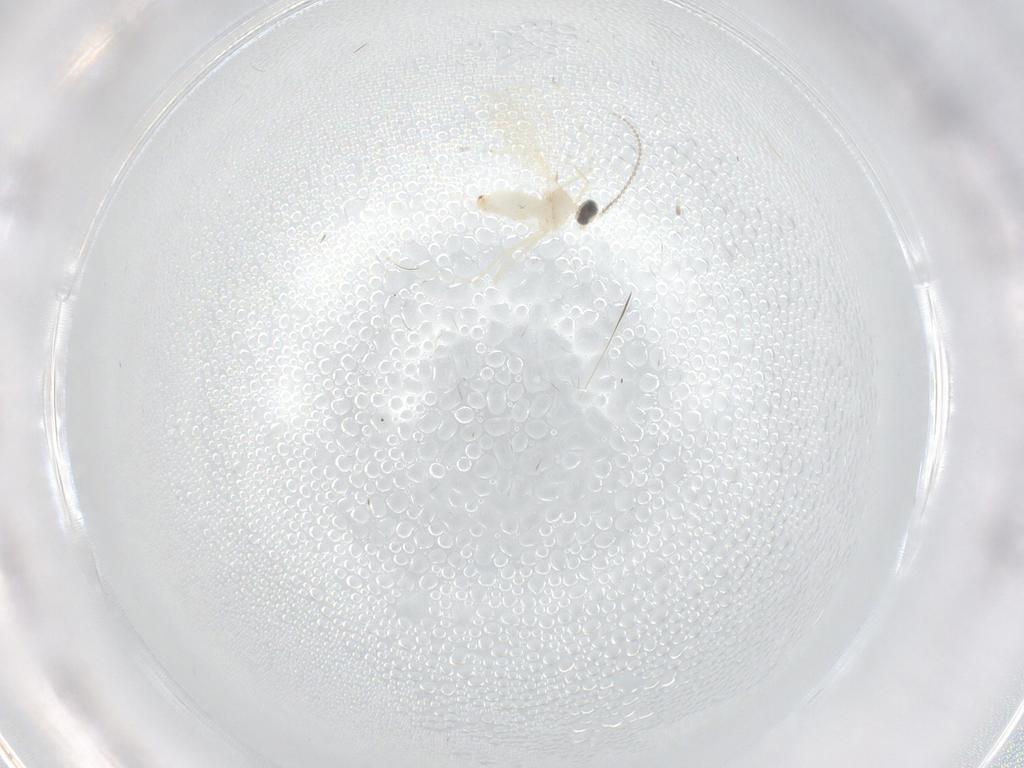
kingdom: Animalia
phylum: Arthropoda
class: Insecta
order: Diptera
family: Cecidomyiidae
